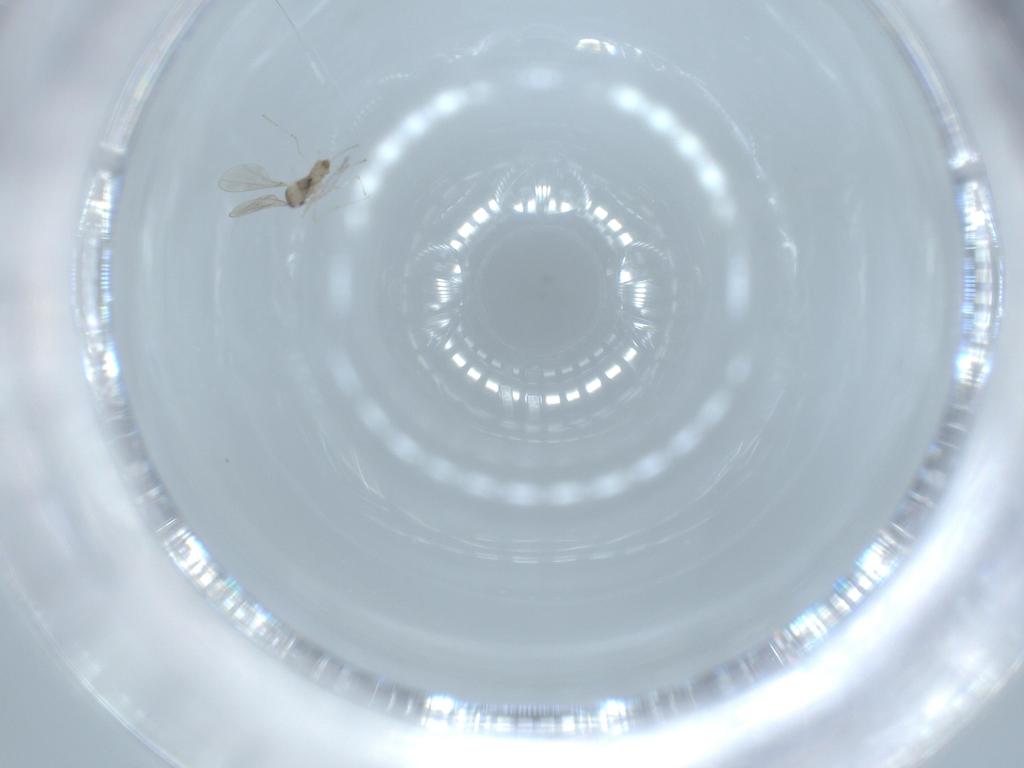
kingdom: Animalia
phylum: Arthropoda
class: Insecta
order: Diptera
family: Cecidomyiidae
